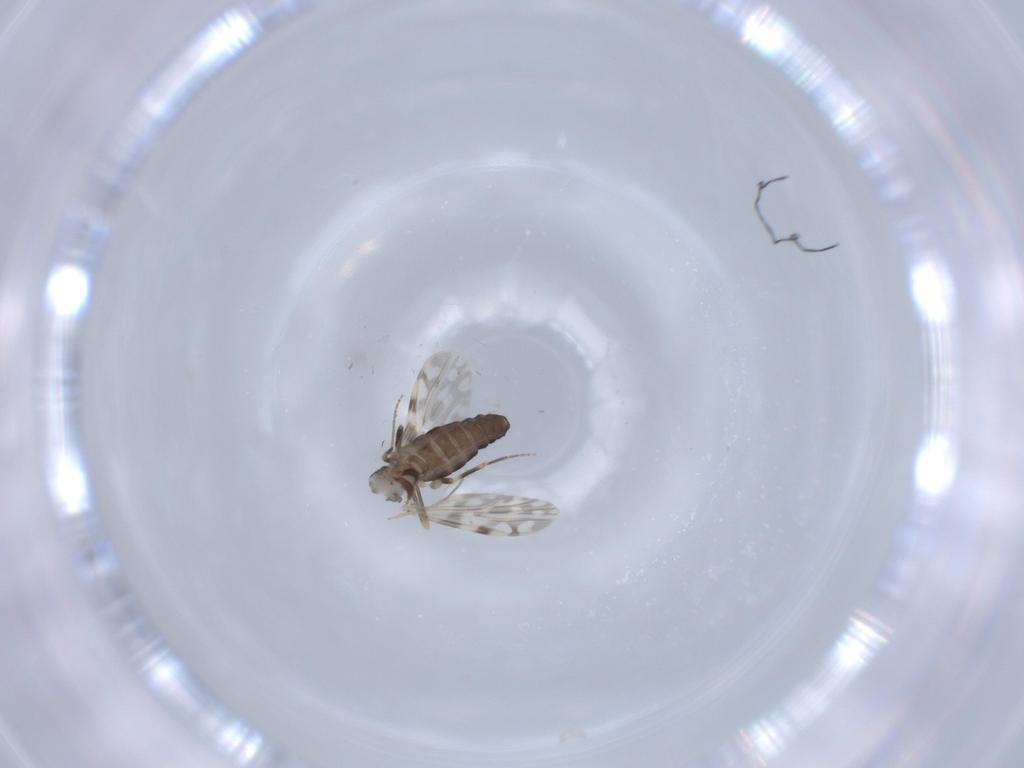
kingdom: Animalia
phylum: Arthropoda
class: Insecta
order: Diptera
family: Ceratopogonidae
